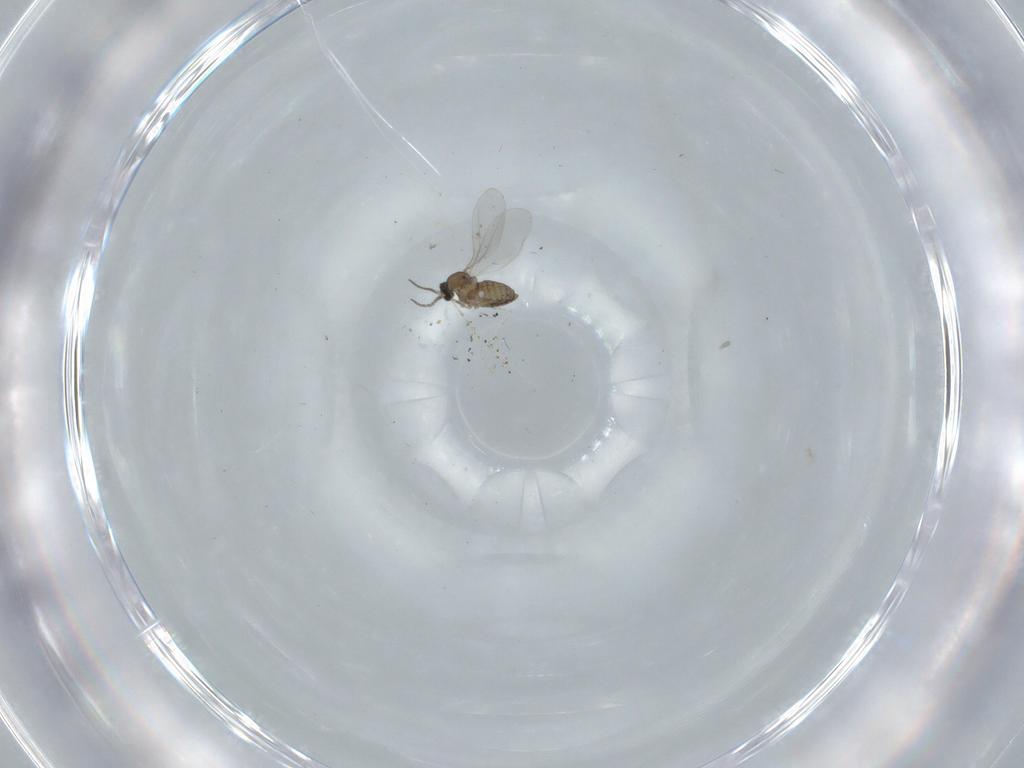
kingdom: Animalia
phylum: Arthropoda
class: Insecta
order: Diptera
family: Cecidomyiidae
